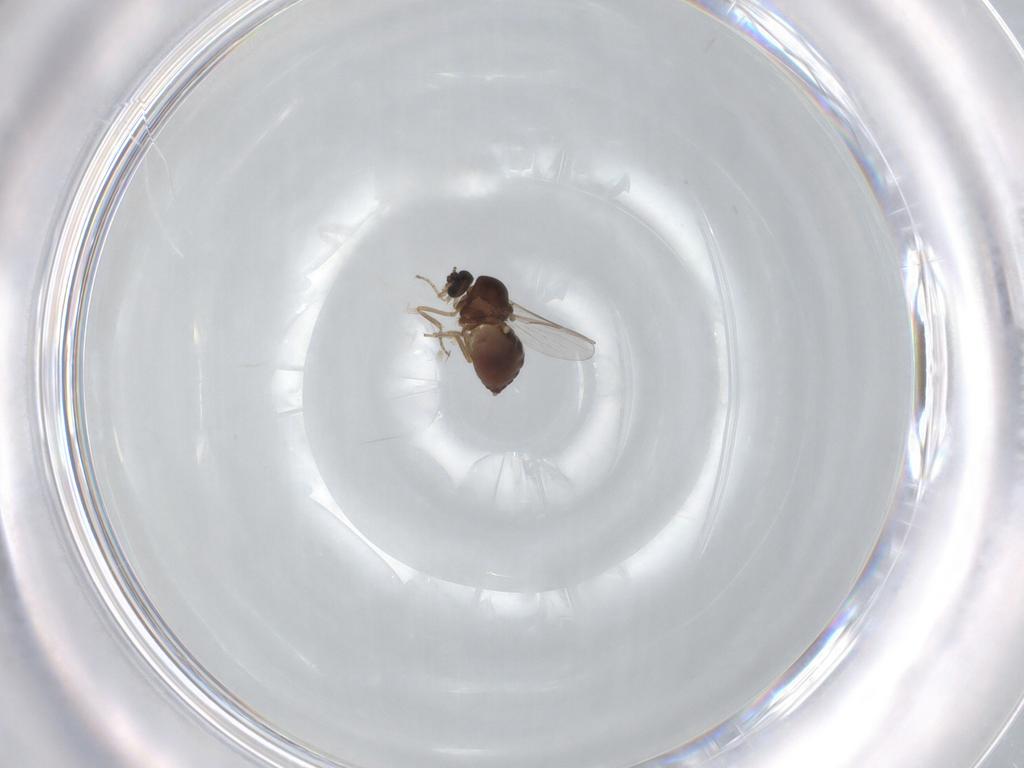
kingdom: Animalia
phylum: Arthropoda
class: Insecta
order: Diptera
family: Ceratopogonidae
